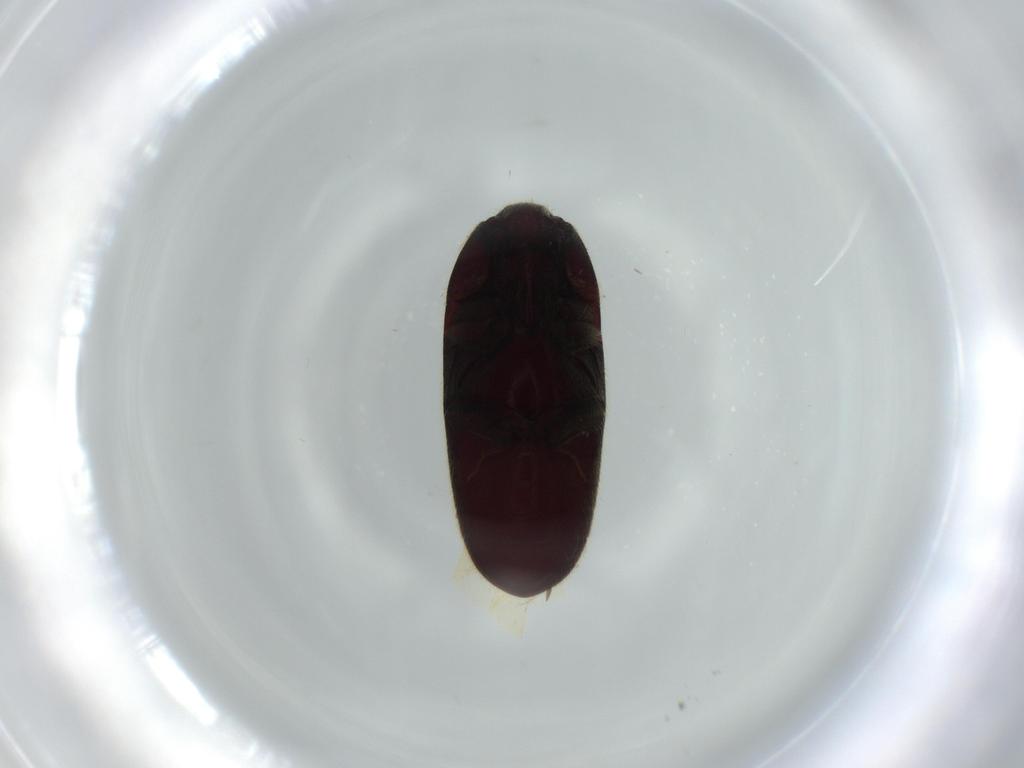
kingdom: Animalia
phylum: Arthropoda
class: Insecta
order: Coleoptera
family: Throscidae
